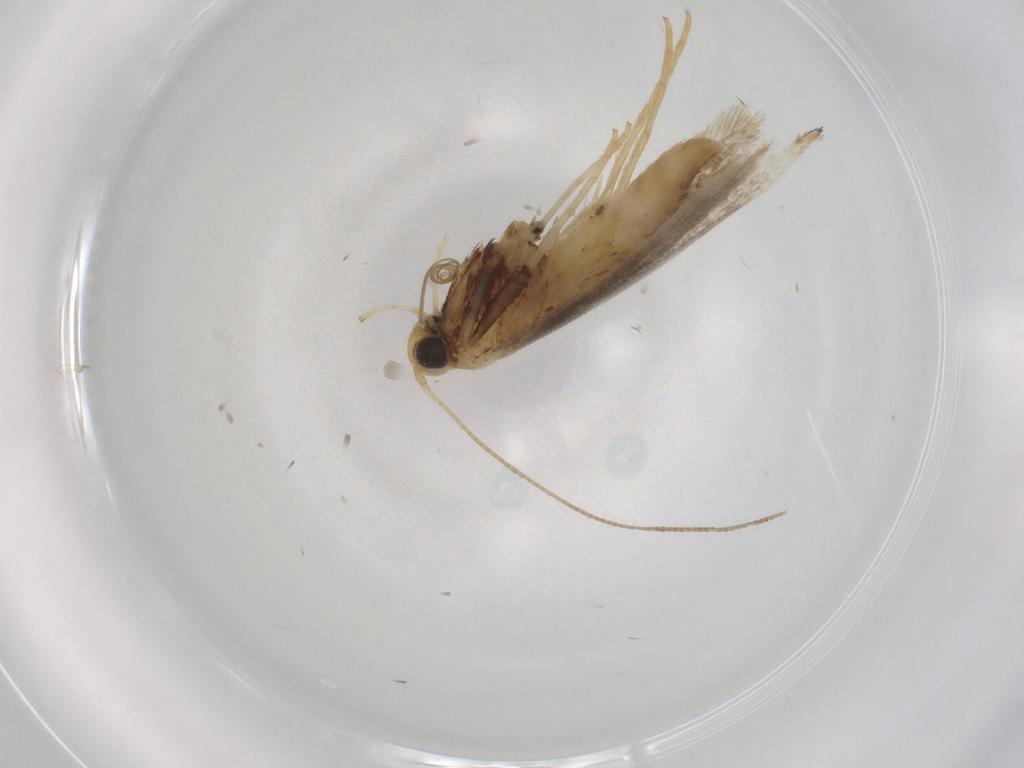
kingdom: Animalia
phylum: Arthropoda
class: Insecta
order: Lepidoptera
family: Gracillariidae
